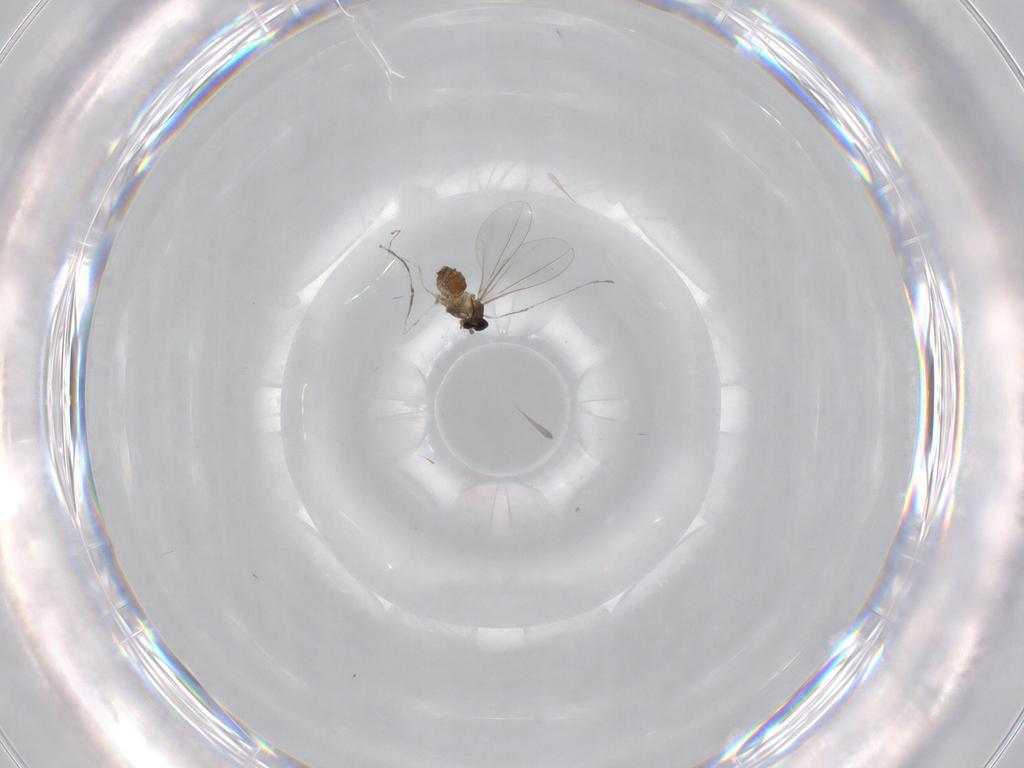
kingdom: Animalia
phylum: Arthropoda
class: Insecta
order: Diptera
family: Cecidomyiidae
